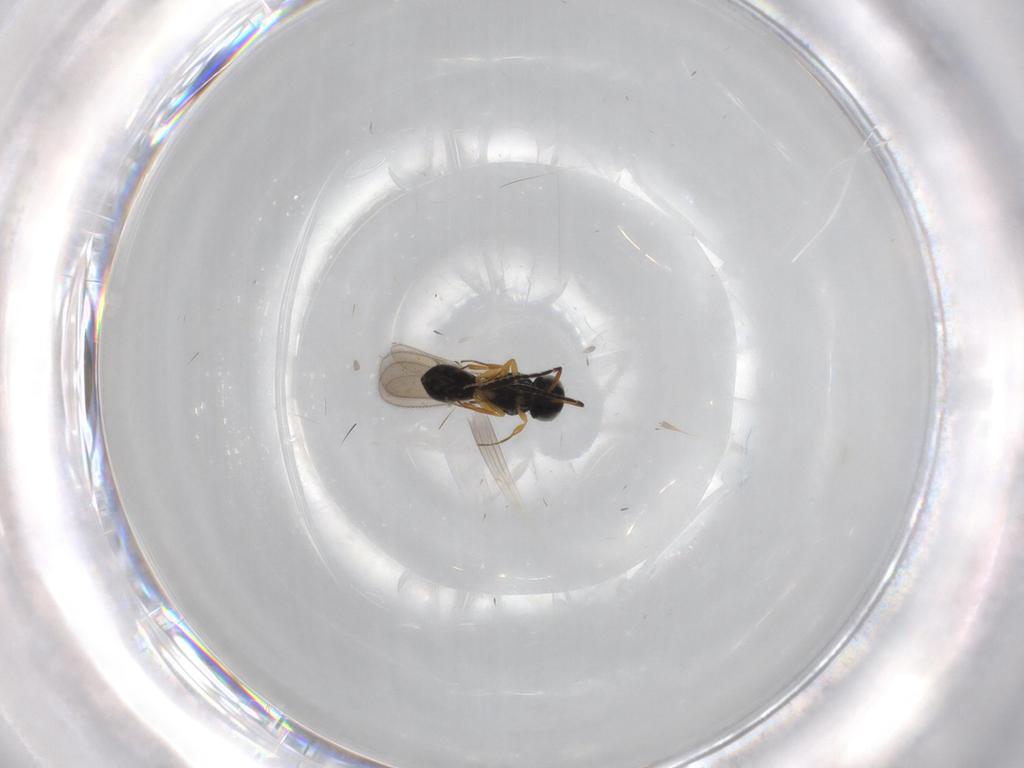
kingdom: Animalia
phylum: Arthropoda
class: Insecta
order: Hymenoptera
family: Scelionidae
